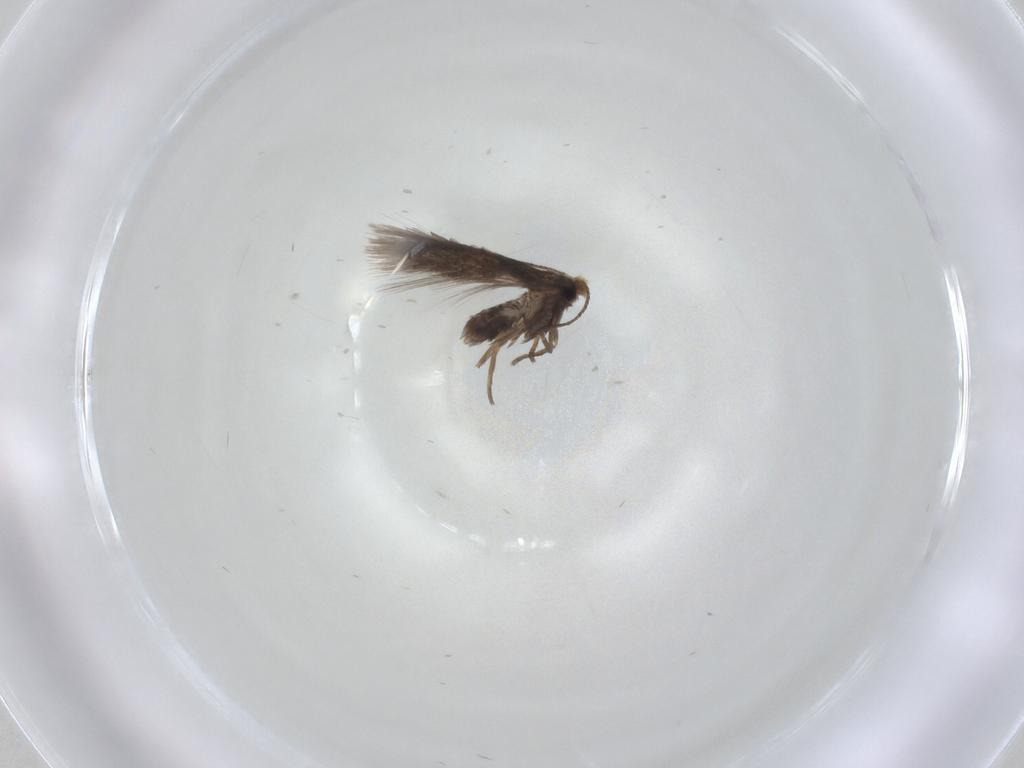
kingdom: Animalia
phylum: Arthropoda
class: Insecta
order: Lepidoptera
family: Nepticulidae
